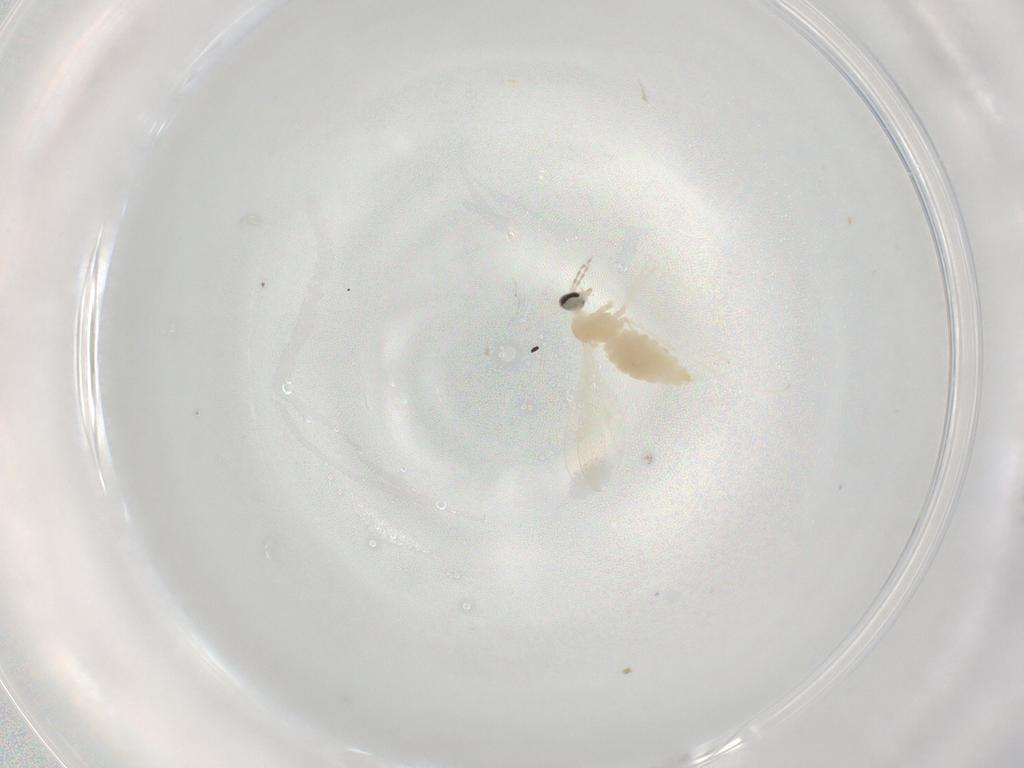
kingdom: Animalia
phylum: Arthropoda
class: Insecta
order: Diptera
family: Asilidae
